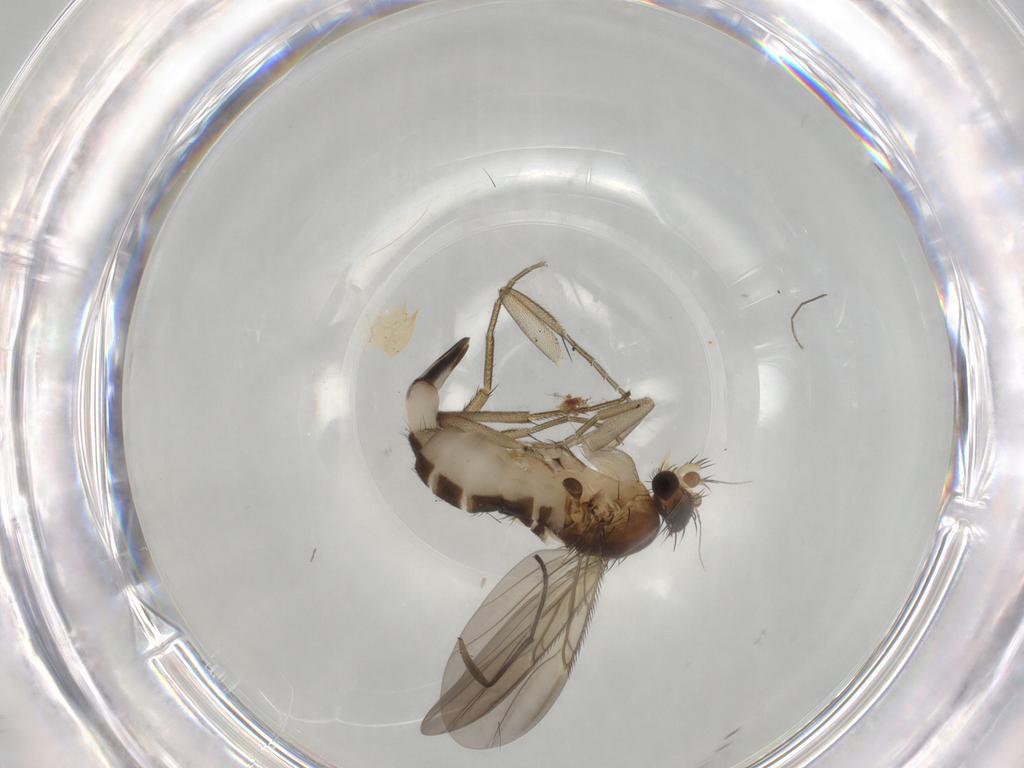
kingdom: Animalia
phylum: Arthropoda
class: Insecta
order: Diptera
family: Phoridae
